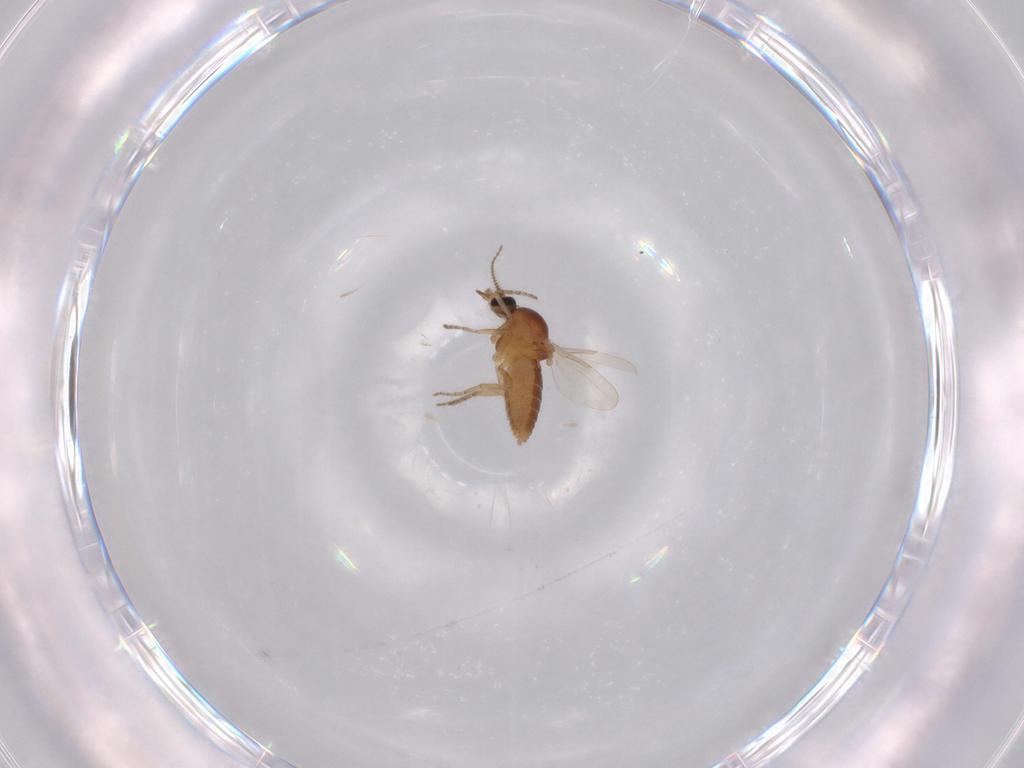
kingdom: Animalia
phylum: Arthropoda
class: Insecta
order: Diptera
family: Ceratopogonidae
